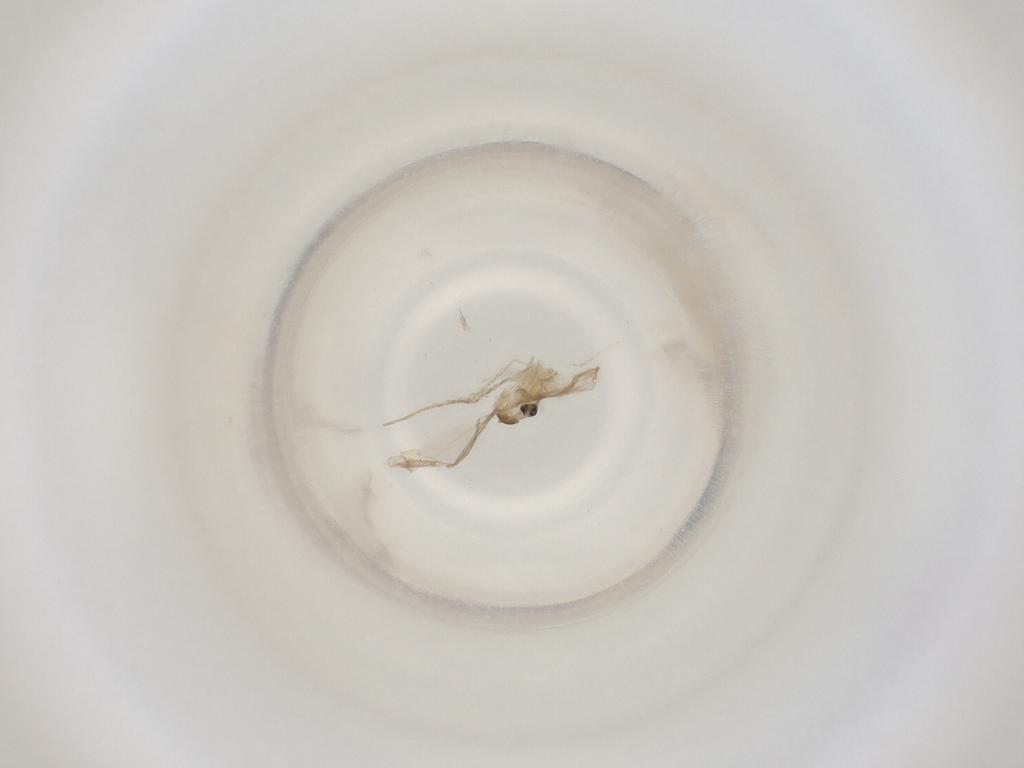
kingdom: Animalia
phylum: Arthropoda
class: Insecta
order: Diptera
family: Cecidomyiidae
